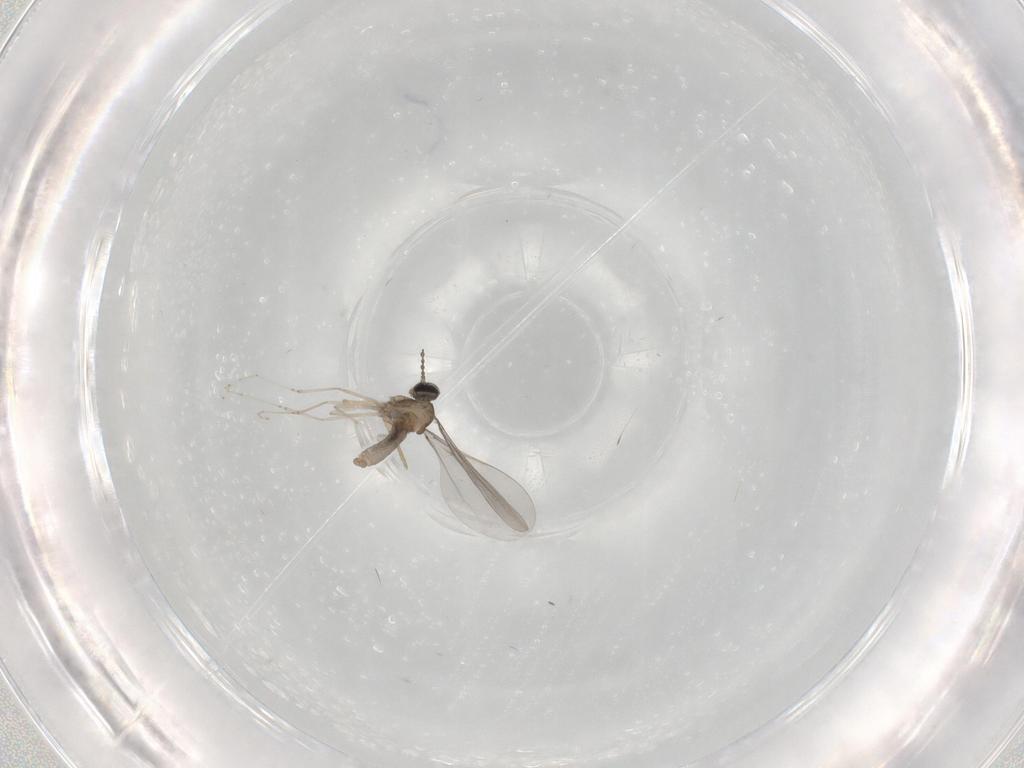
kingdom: Animalia
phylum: Arthropoda
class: Insecta
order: Diptera
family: Cecidomyiidae
